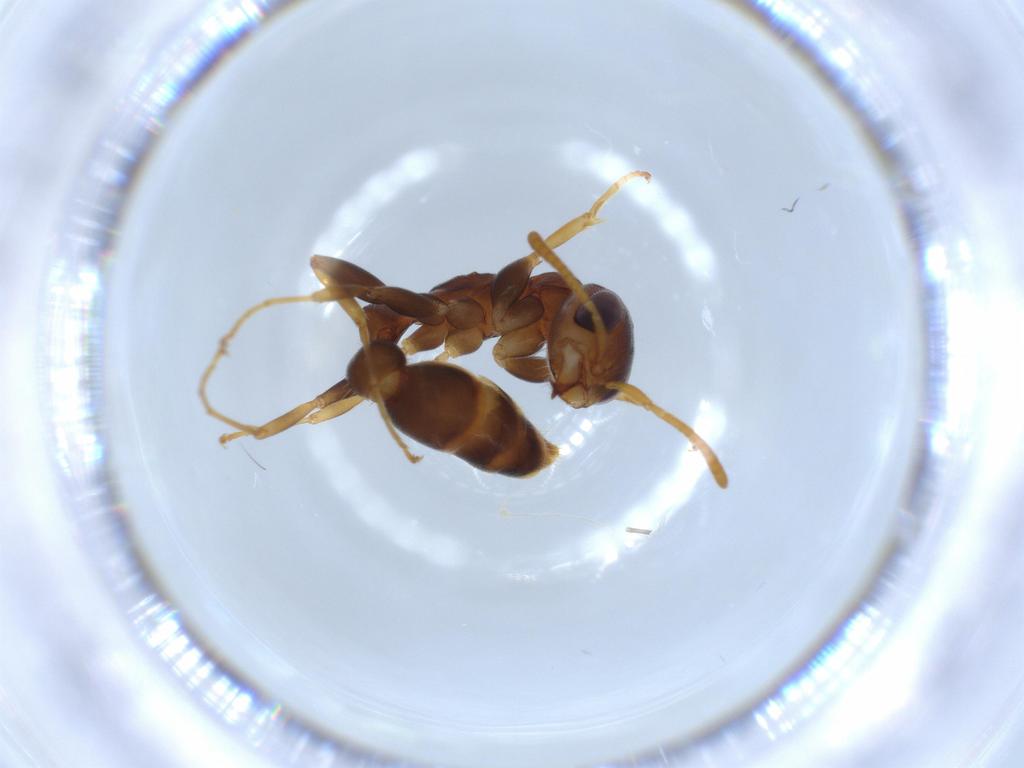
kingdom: Animalia
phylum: Arthropoda
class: Insecta
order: Hymenoptera
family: Formicidae
